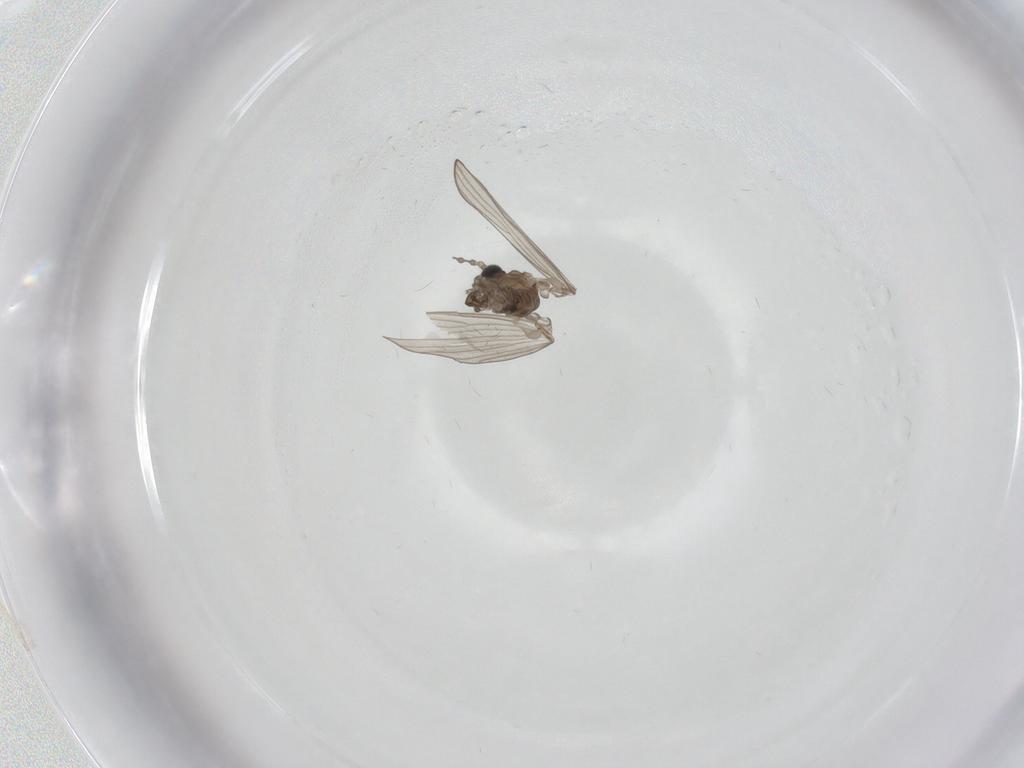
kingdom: Animalia
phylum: Arthropoda
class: Insecta
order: Diptera
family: Psychodidae
